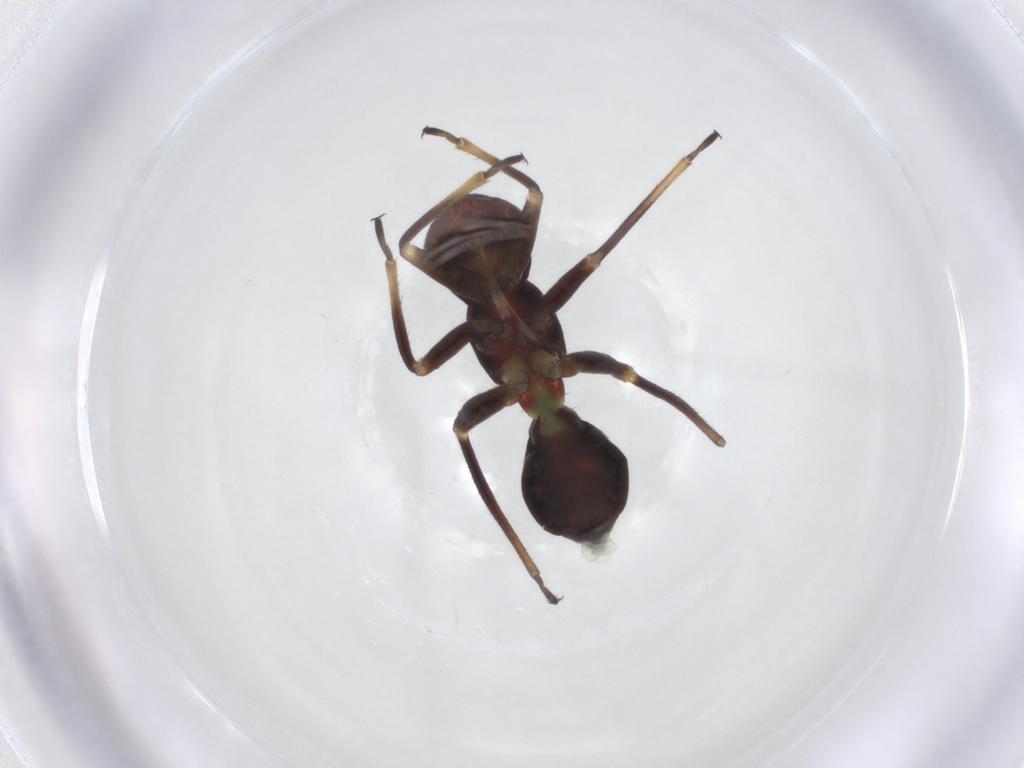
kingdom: Animalia
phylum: Arthropoda
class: Insecta
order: Hemiptera
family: Miridae
